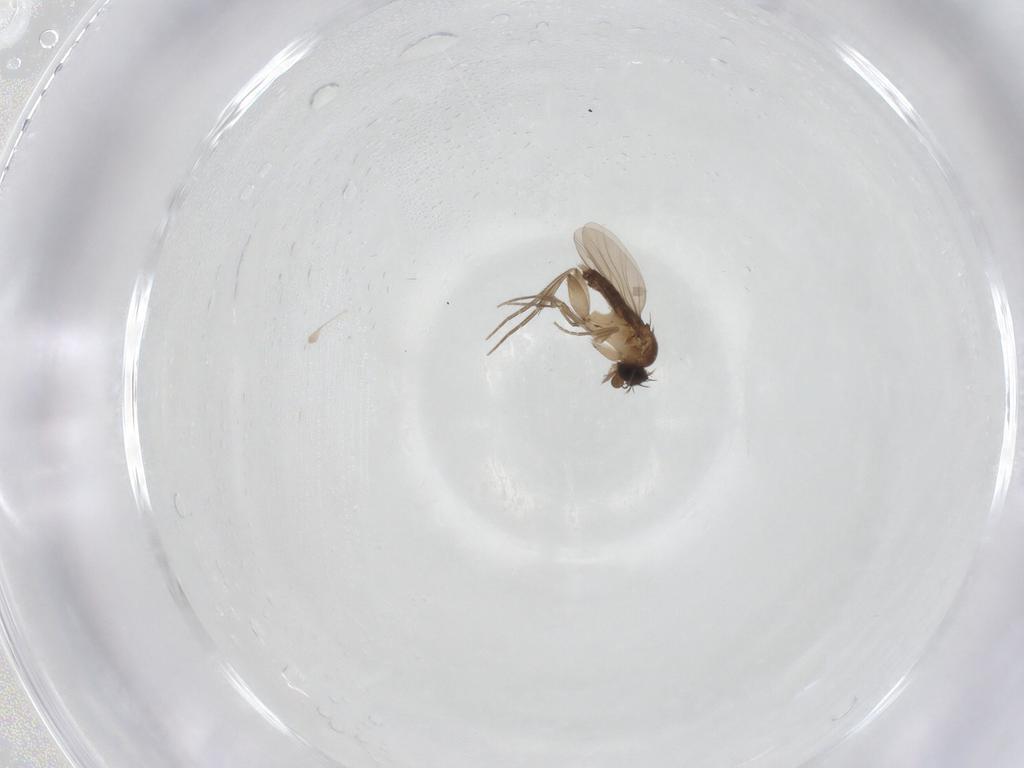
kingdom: Animalia
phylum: Arthropoda
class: Insecta
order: Diptera
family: Phoridae
